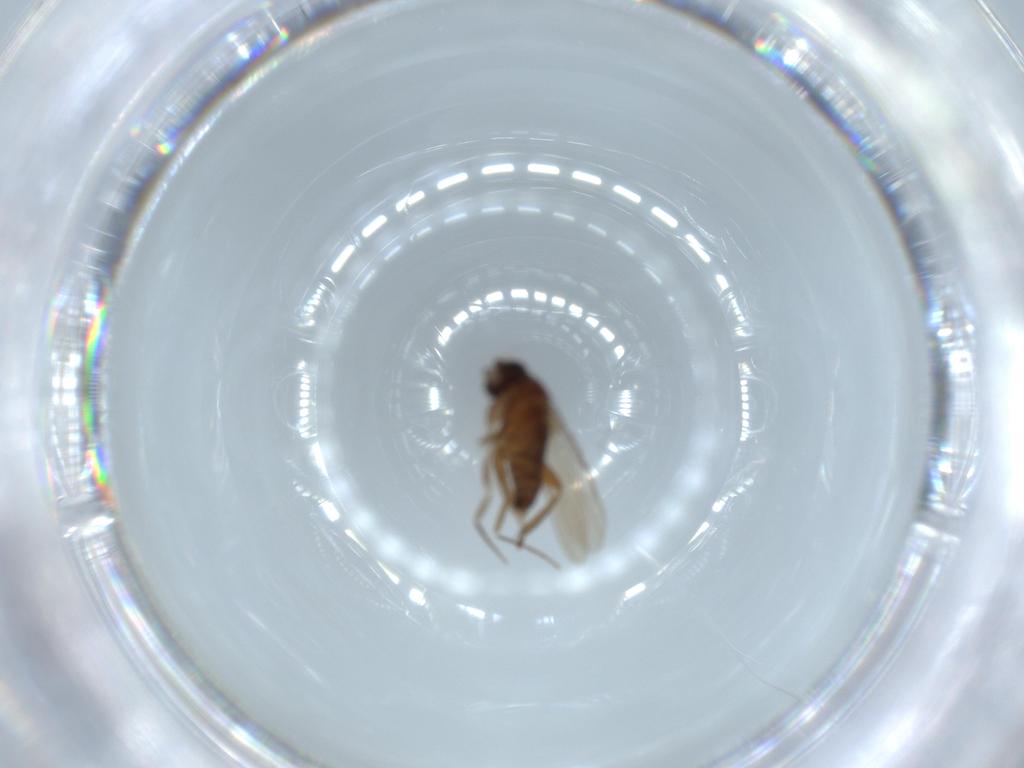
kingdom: Animalia
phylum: Arthropoda
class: Insecta
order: Diptera
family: Phoridae
